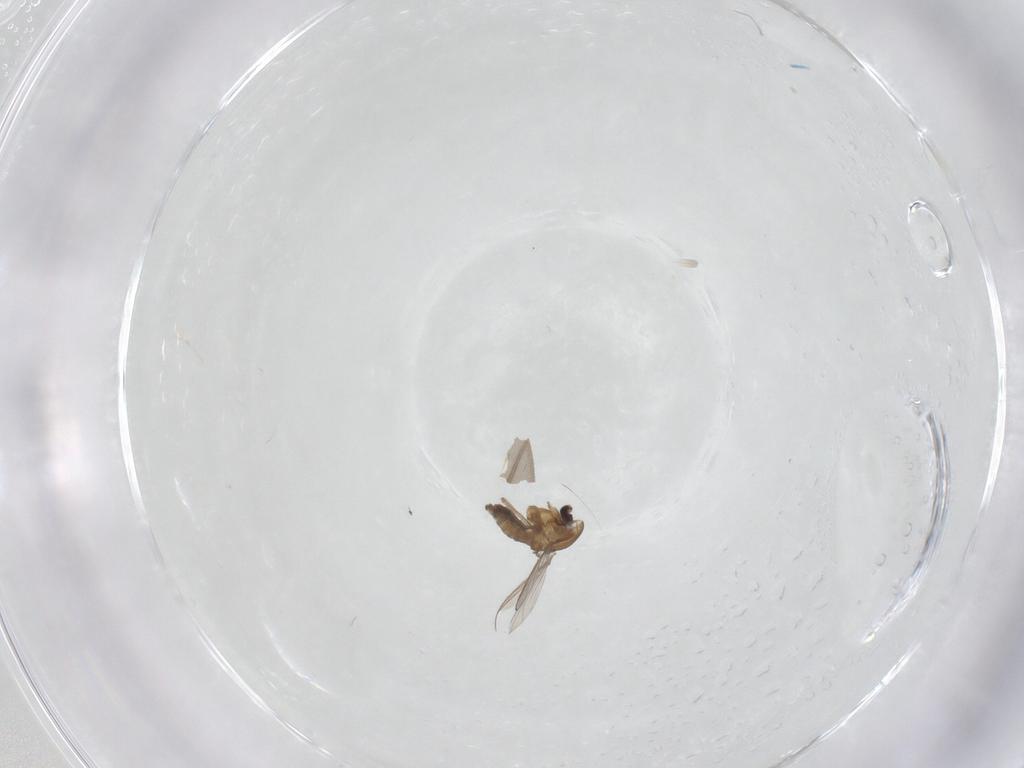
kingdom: Animalia
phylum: Arthropoda
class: Insecta
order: Diptera
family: Chironomidae
